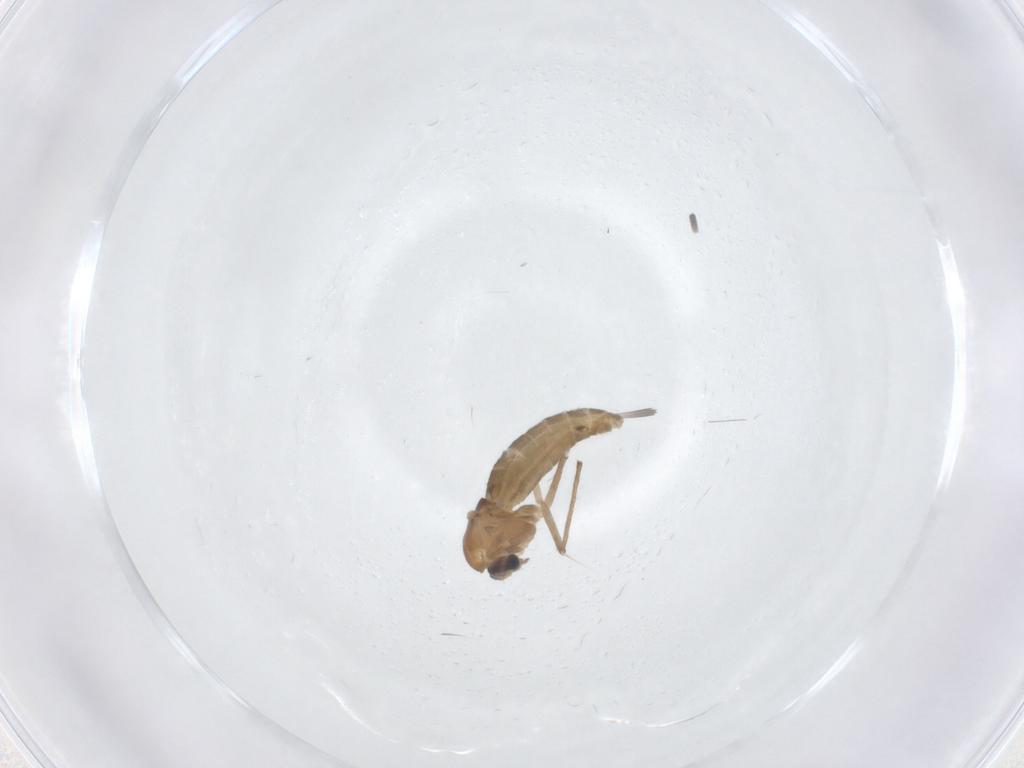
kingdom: Animalia
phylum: Arthropoda
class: Insecta
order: Diptera
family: Chironomidae
